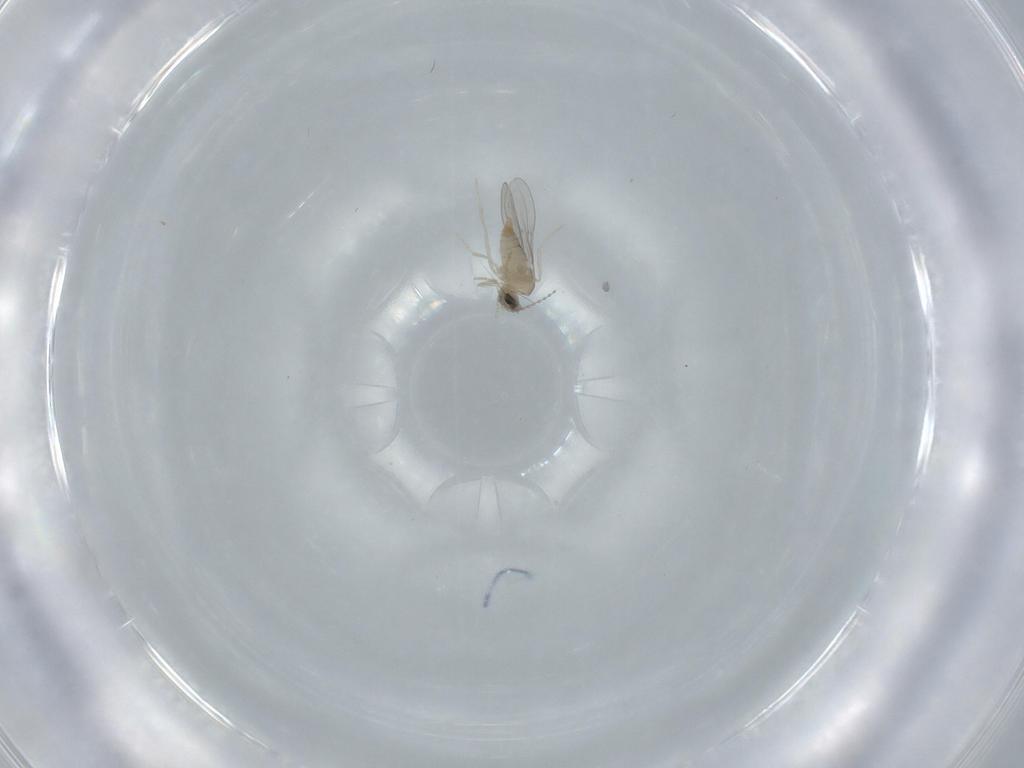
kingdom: Animalia
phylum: Arthropoda
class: Insecta
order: Diptera
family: Cecidomyiidae
